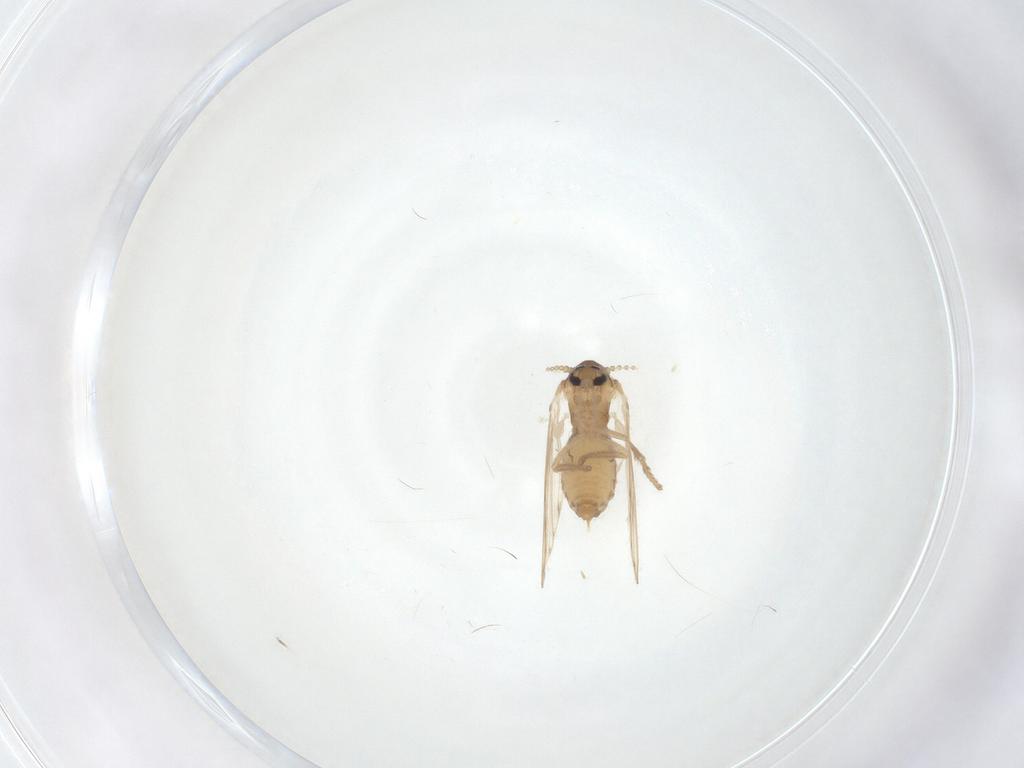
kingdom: Animalia
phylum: Arthropoda
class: Insecta
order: Diptera
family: Psychodidae
